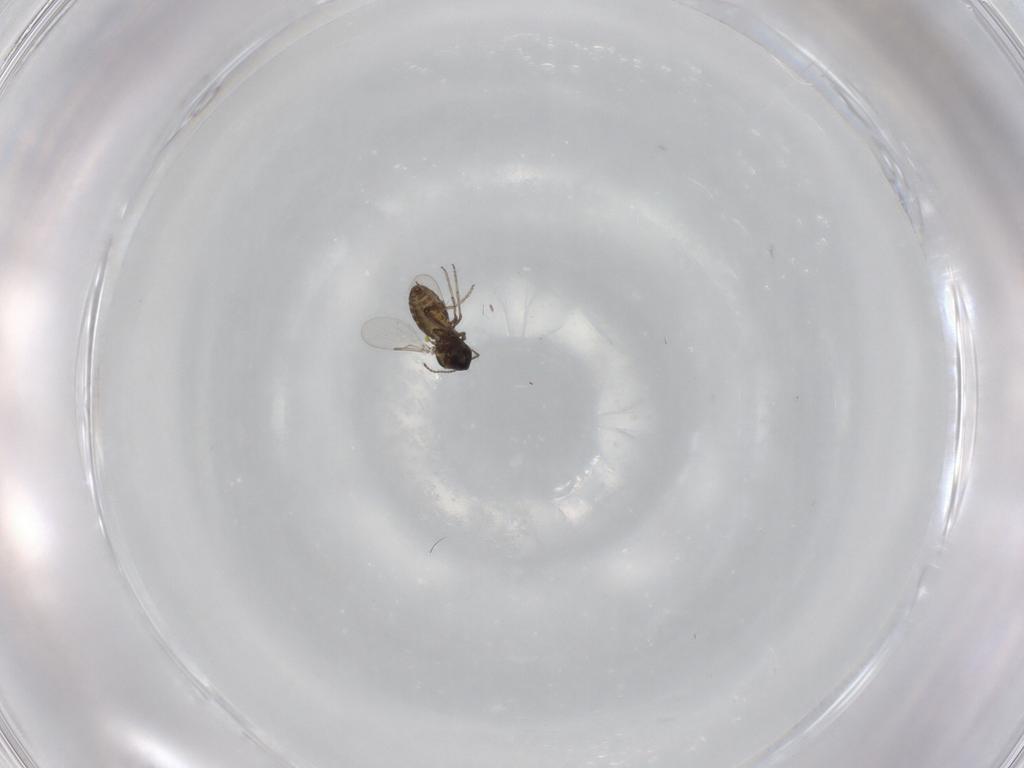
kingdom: Animalia
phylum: Arthropoda
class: Insecta
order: Diptera
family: Ceratopogonidae
